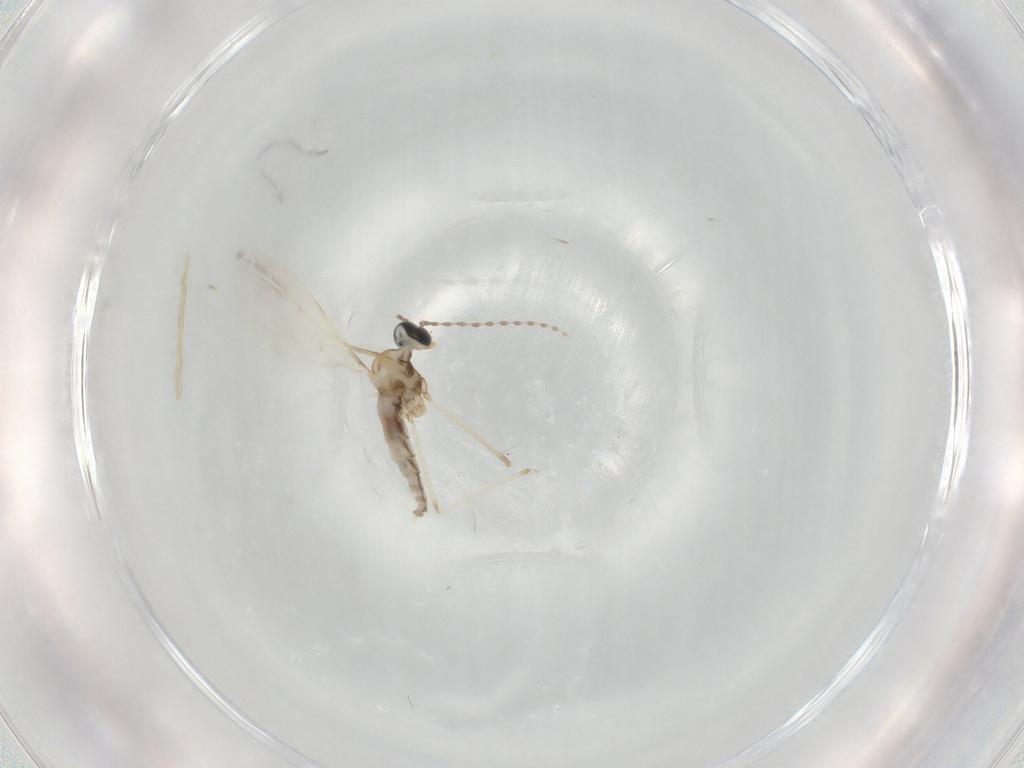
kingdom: Animalia
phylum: Arthropoda
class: Insecta
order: Diptera
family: Cecidomyiidae
